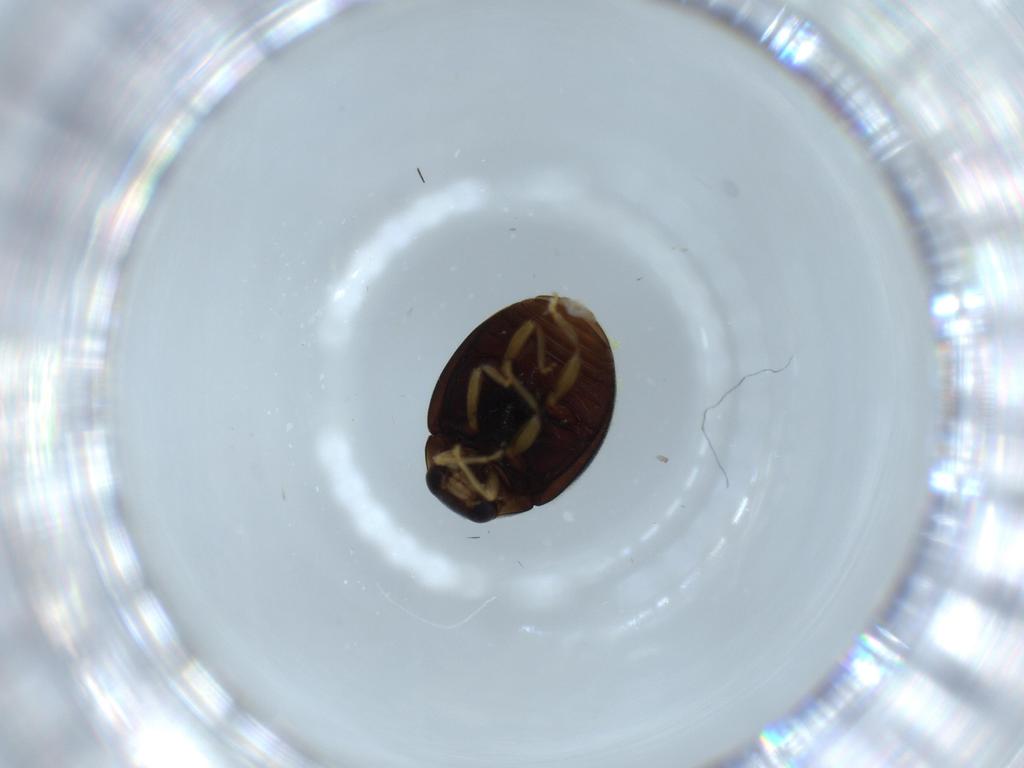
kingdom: Animalia
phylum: Arthropoda
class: Insecta
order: Coleoptera
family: Coccinellidae
